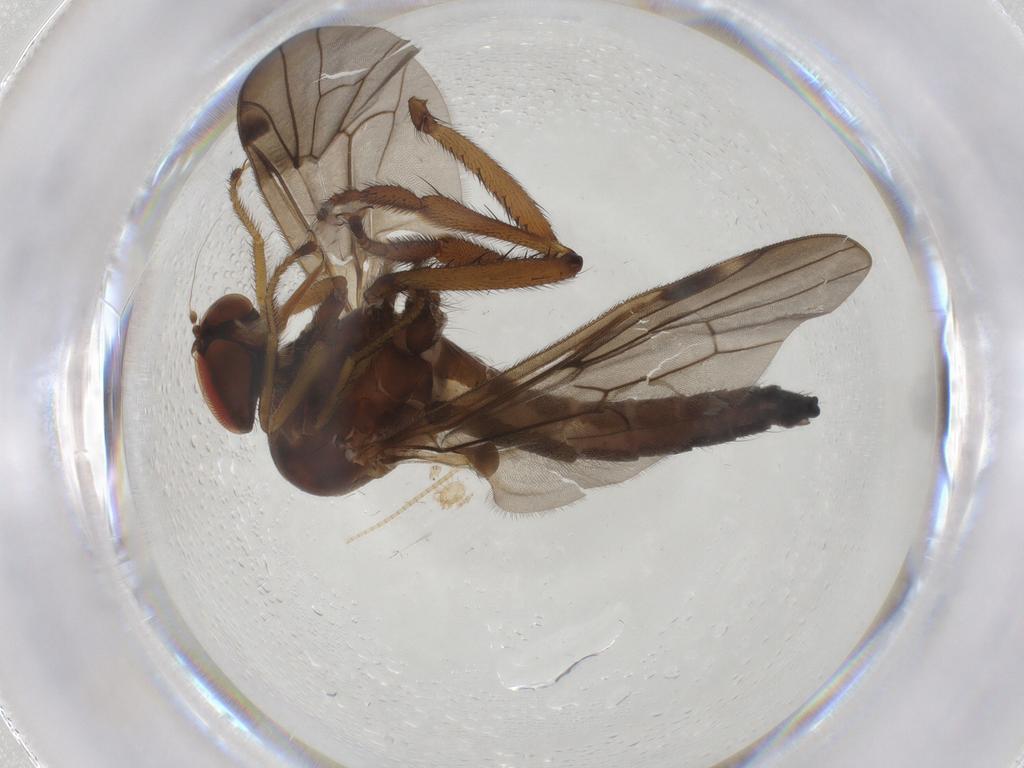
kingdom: Animalia
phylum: Arthropoda
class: Insecta
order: Diptera
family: Hybotidae
